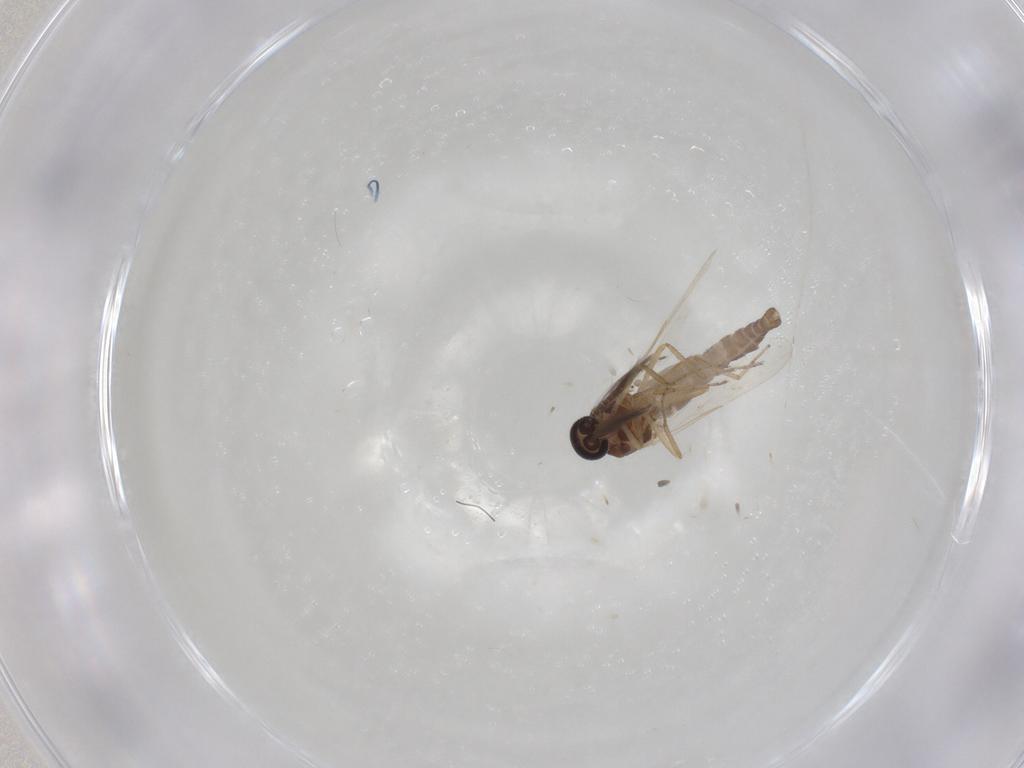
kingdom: Animalia
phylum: Arthropoda
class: Insecta
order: Diptera
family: Ceratopogonidae
